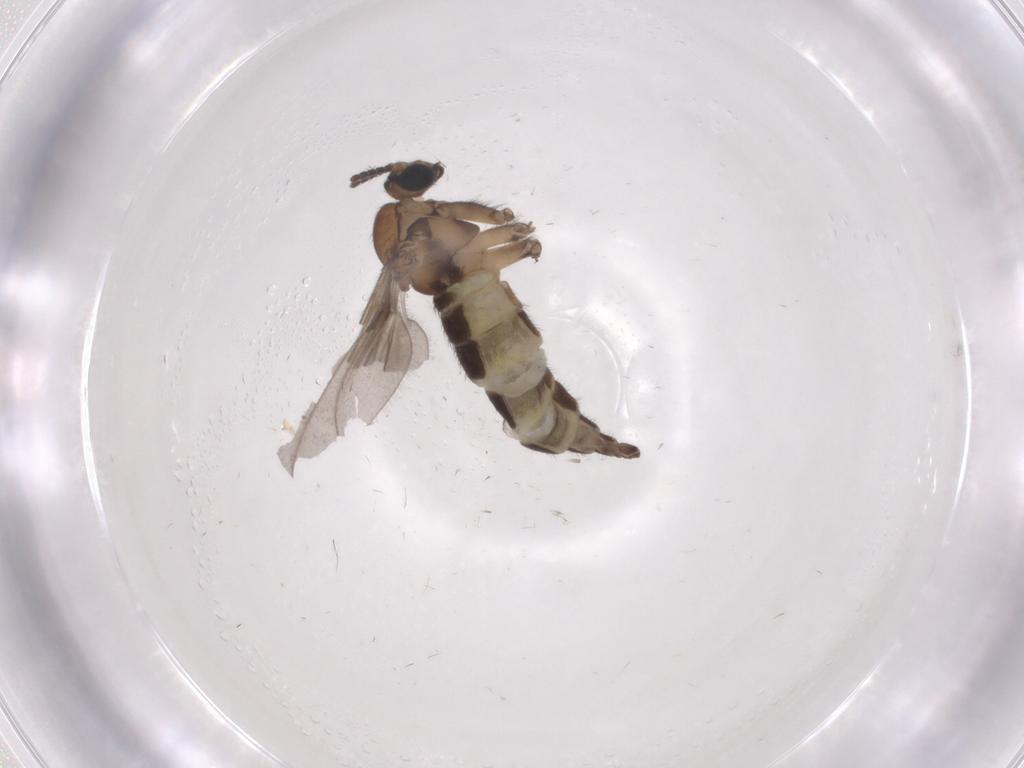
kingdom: Animalia
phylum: Arthropoda
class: Insecta
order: Diptera
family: Sciaridae
